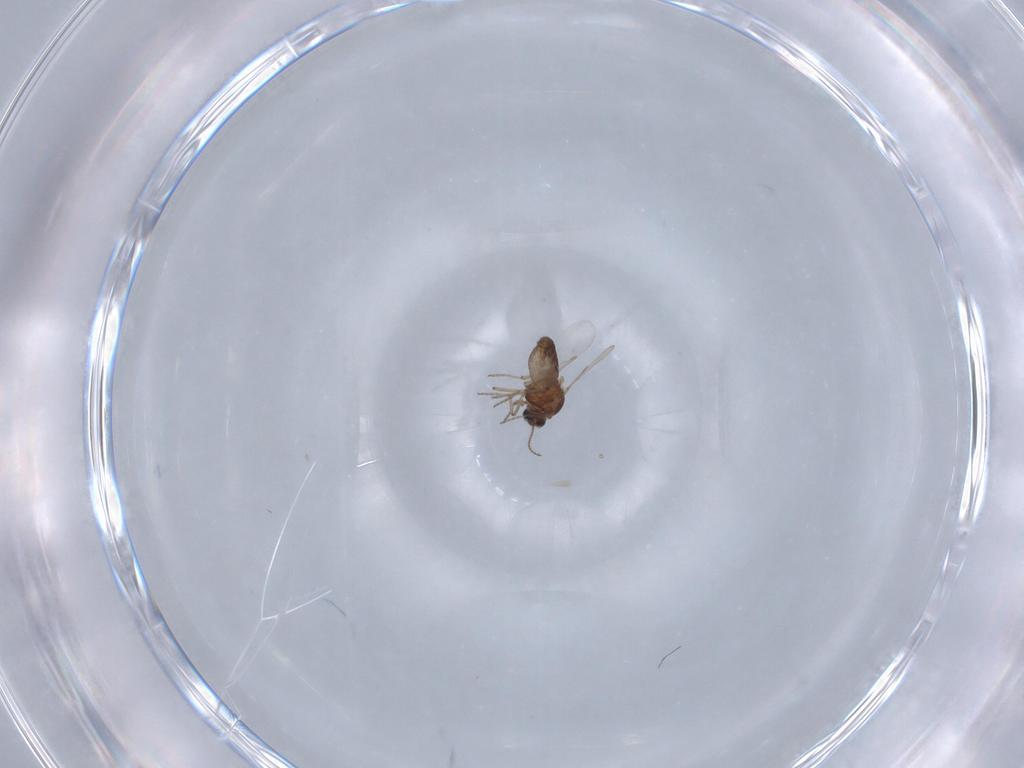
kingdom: Animalia
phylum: Arthropoda
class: Insecta
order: Diptera
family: Ceratopogonidae
